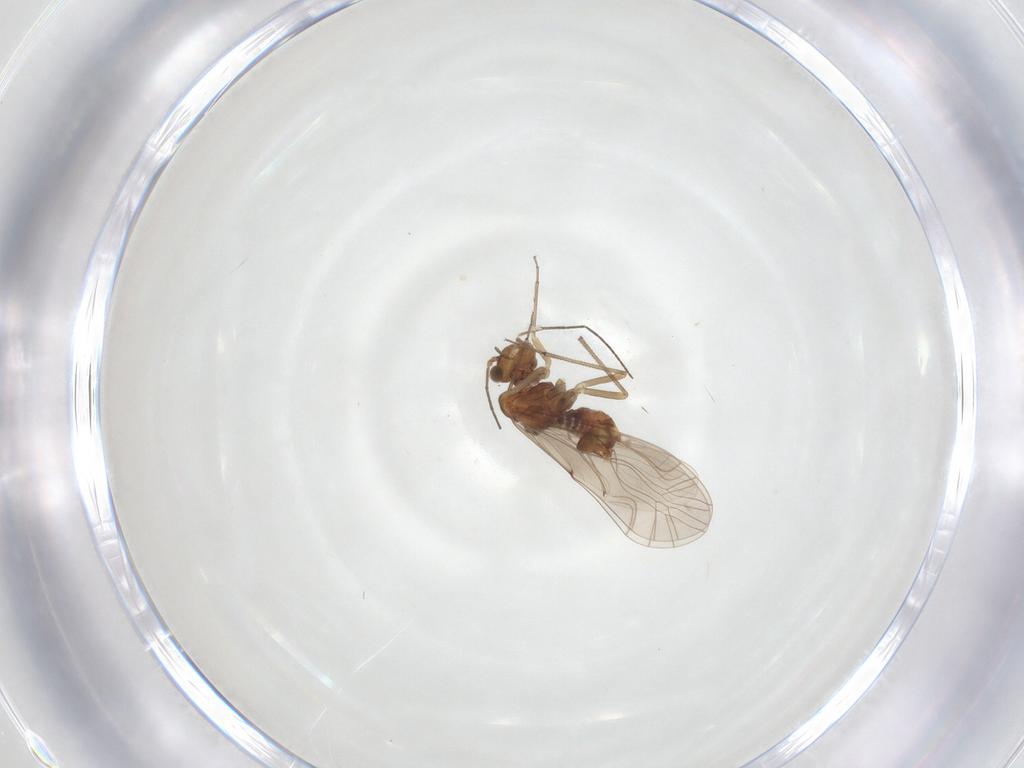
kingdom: Animalia
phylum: Arthropoda
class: Insecta
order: Psocodea
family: Lachesillidae
